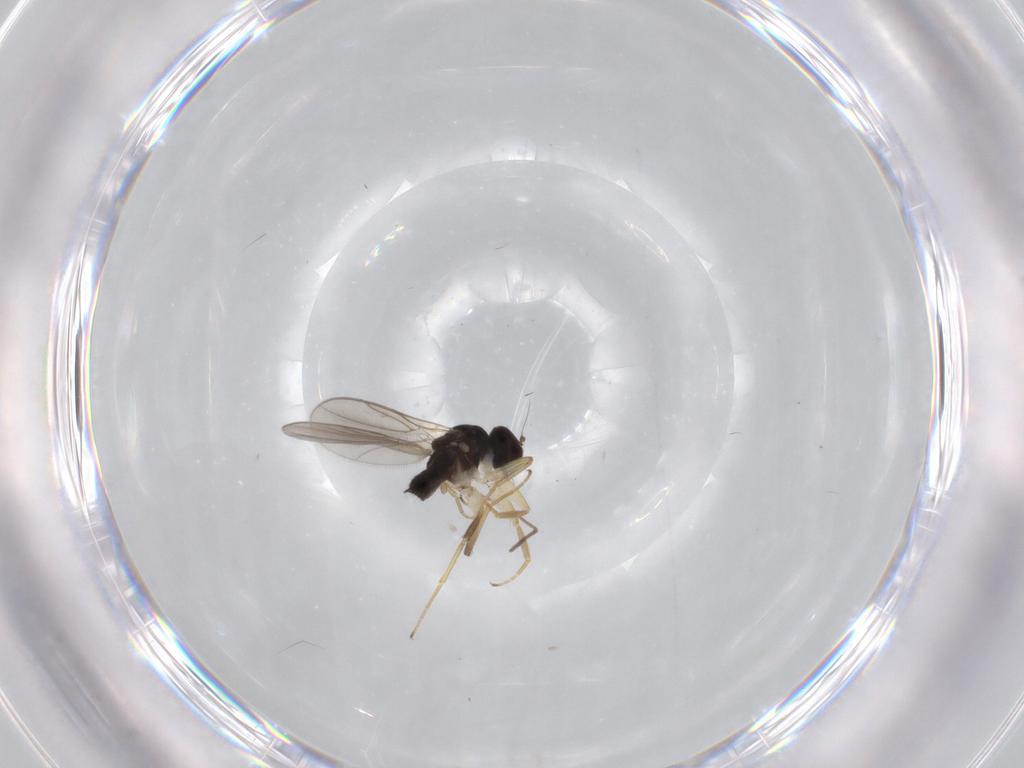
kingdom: Animalia
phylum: Arthropoda
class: Insecta
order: Diptera
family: Hybotidae
